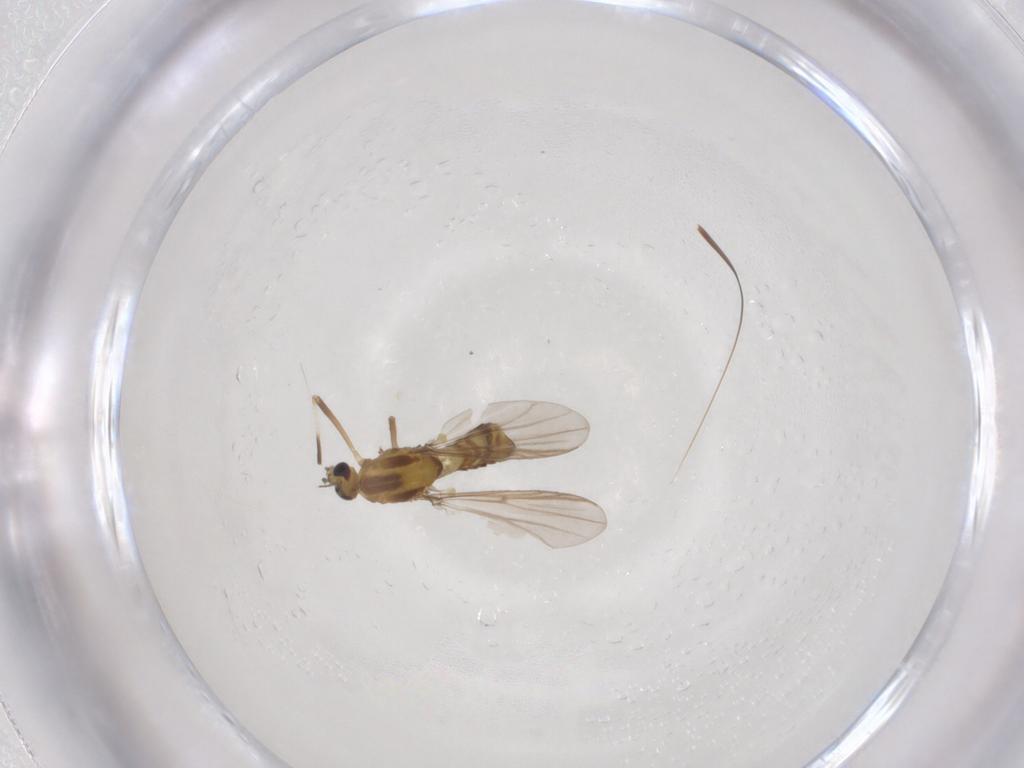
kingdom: Animalia
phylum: Arthropoda
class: Insecta
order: Diptera
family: Chironomidae
